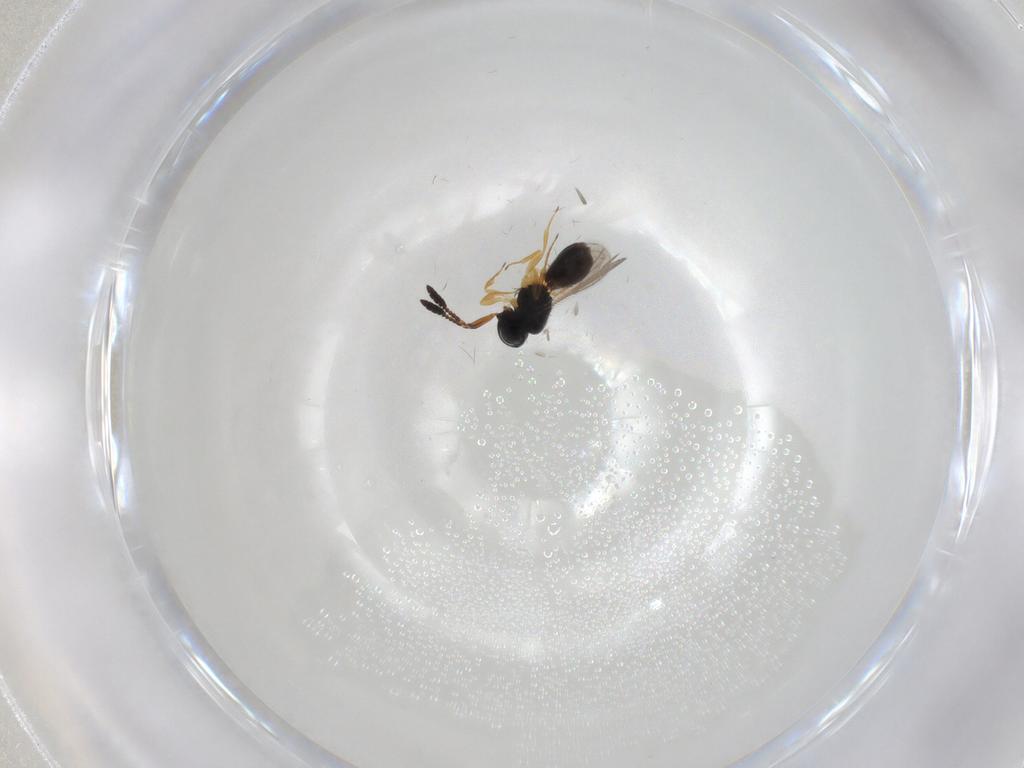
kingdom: Animalia
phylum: Arthropoda
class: Insecta
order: Hymenoptera
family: Scelionidae
